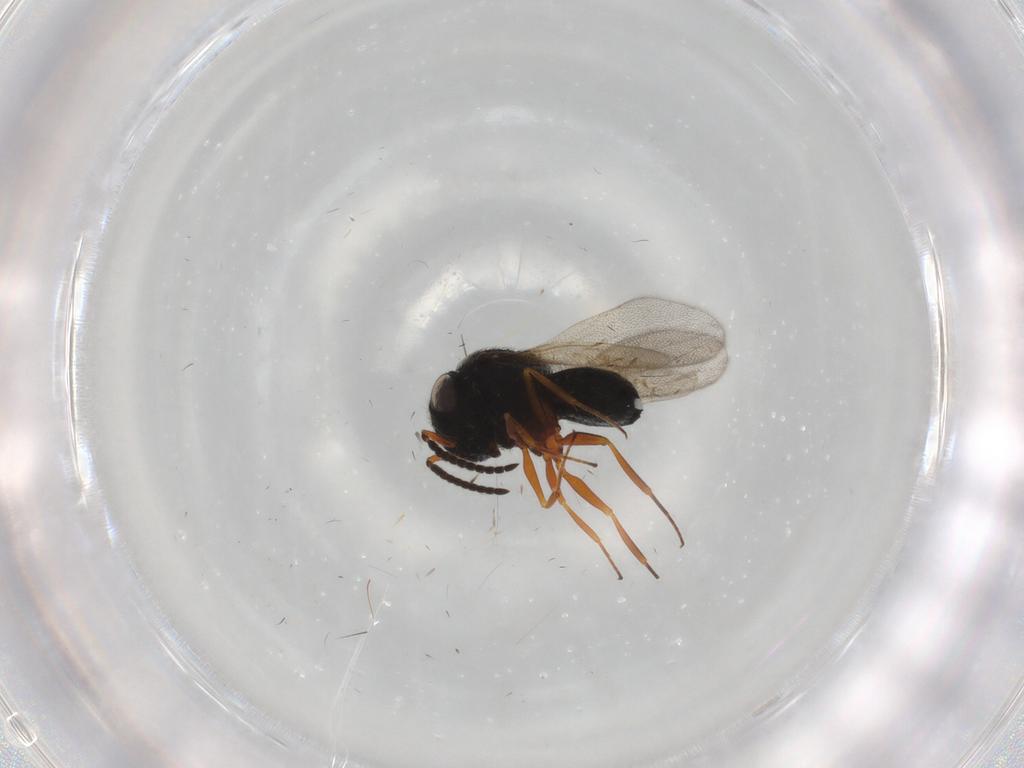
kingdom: Animalia
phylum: Arthropoda
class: Insecta
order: Hymenoptera
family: Scelionidae
